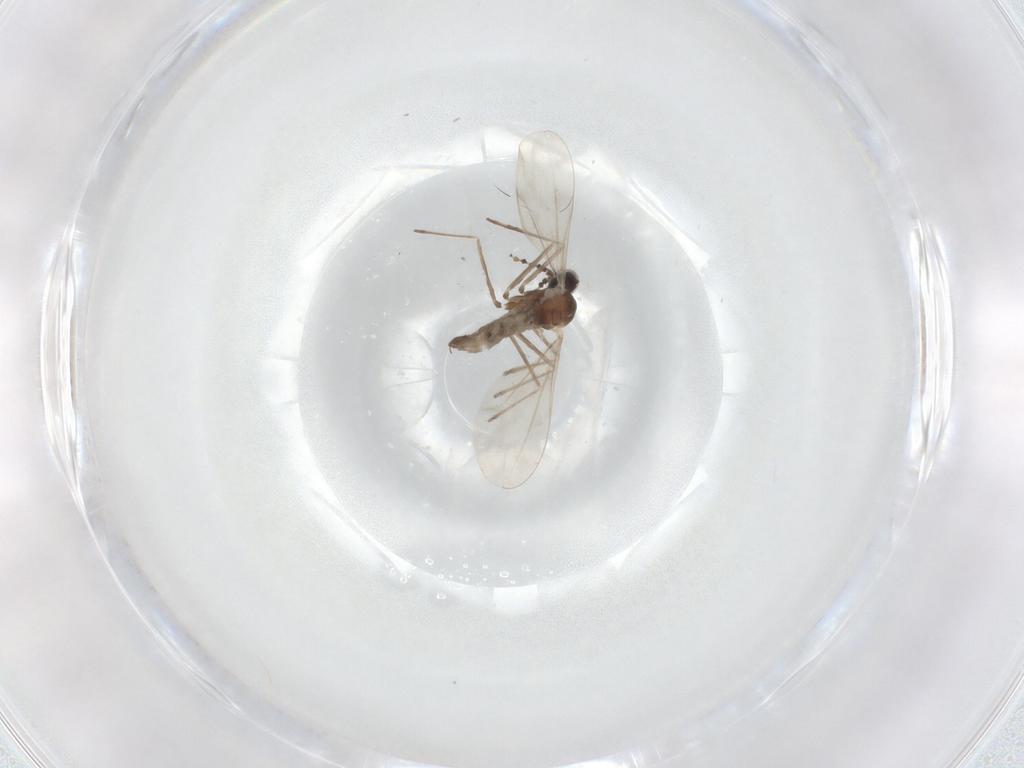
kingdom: Animalia
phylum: Arthropoda
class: Insecta
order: Diptera
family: Cecidomyiidae
